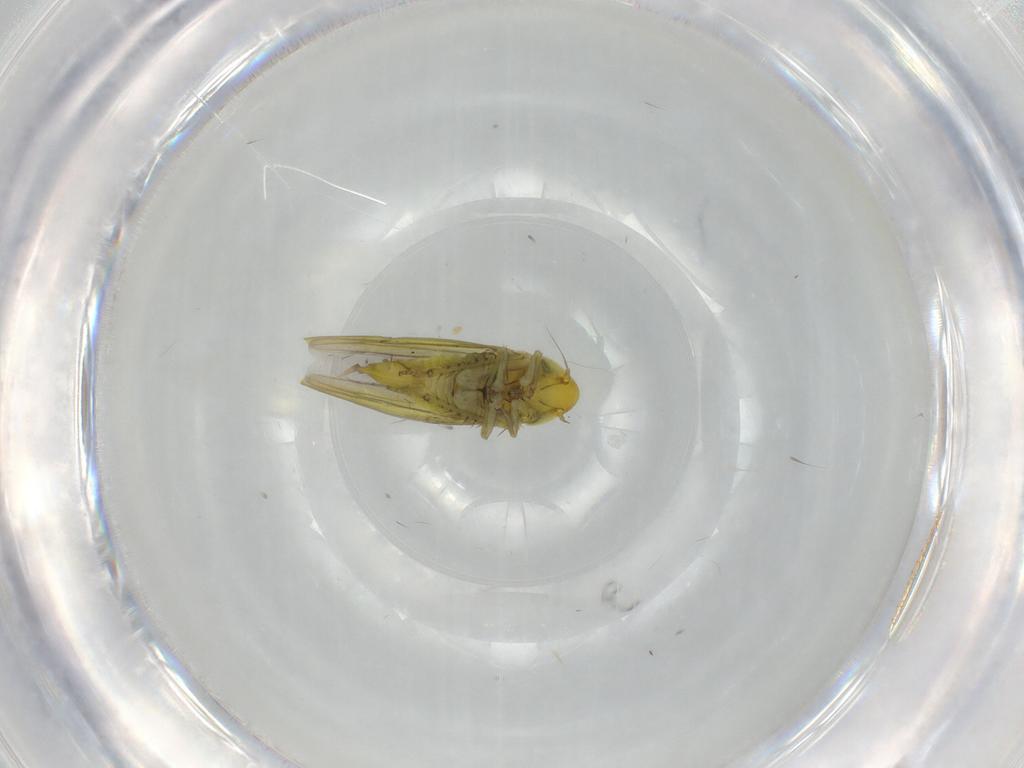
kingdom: Animalia
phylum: Arthropoda
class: Insecta
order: Hemiptera
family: Cicadellidae
